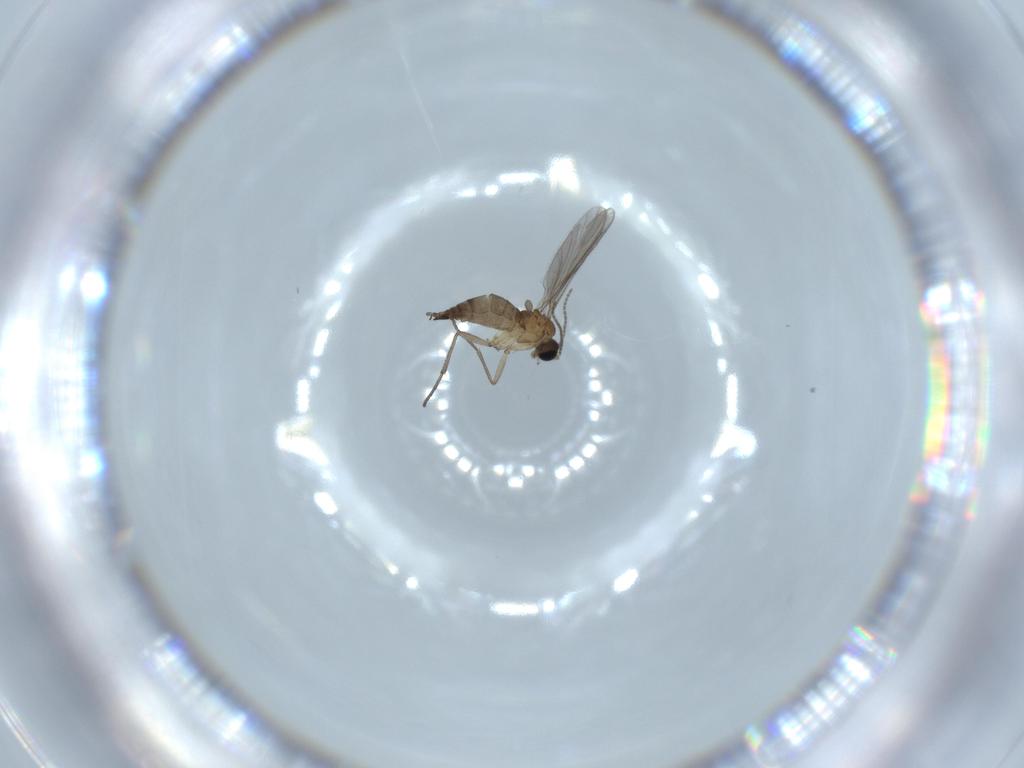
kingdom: Animalia
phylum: Arthropoda
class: Insecta
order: Diptera
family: Sciaridae
